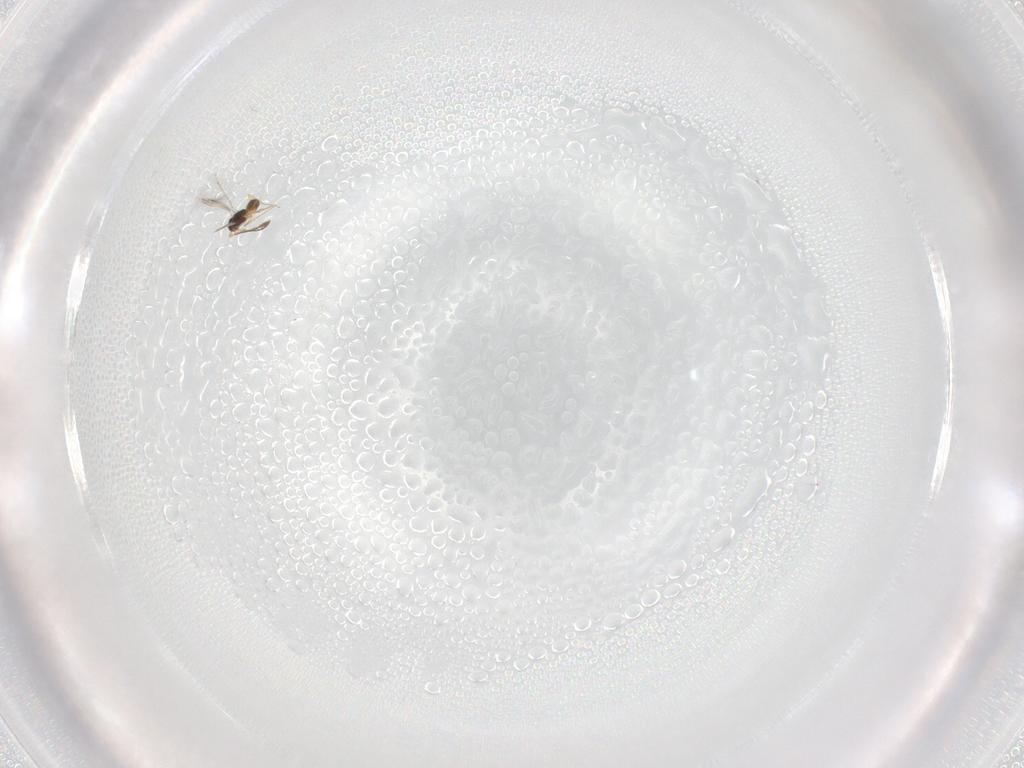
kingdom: Animalia
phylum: Arthropoda
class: Insecta
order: Hymenoptera
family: Mymaridae
